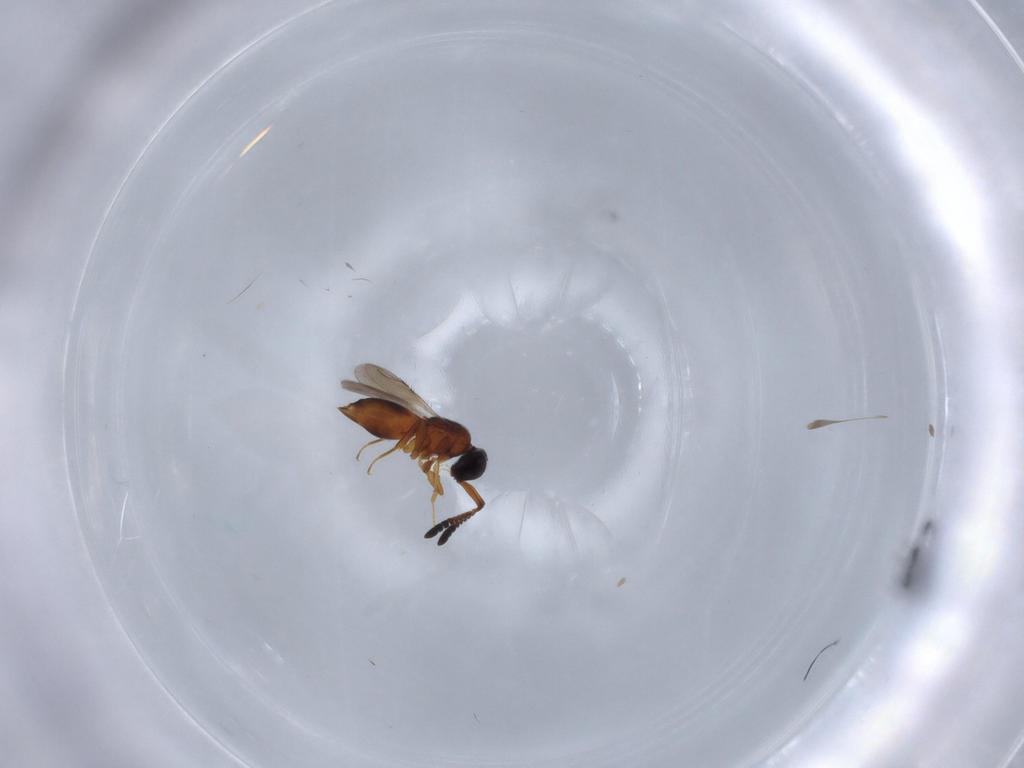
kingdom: Animalia
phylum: Arthropoda
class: Insecta
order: Hymenoptera
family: Ceraphronidae
